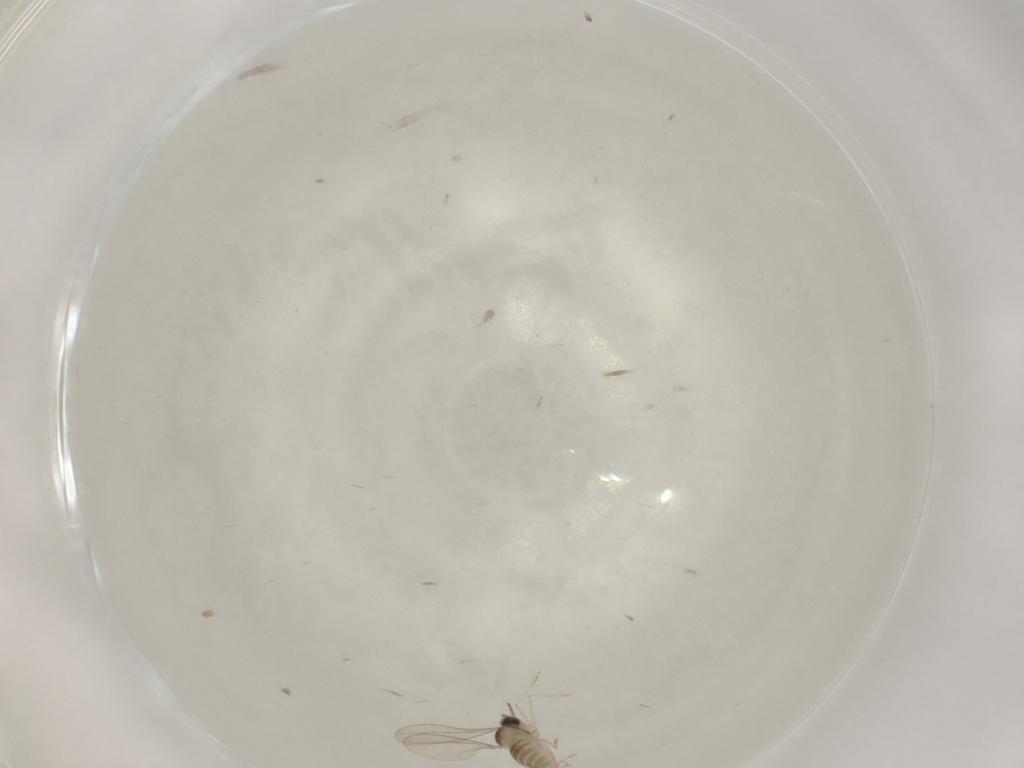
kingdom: Animalia
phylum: Arthropoda
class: Insecta
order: Diptera
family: Cecidomyiidae
